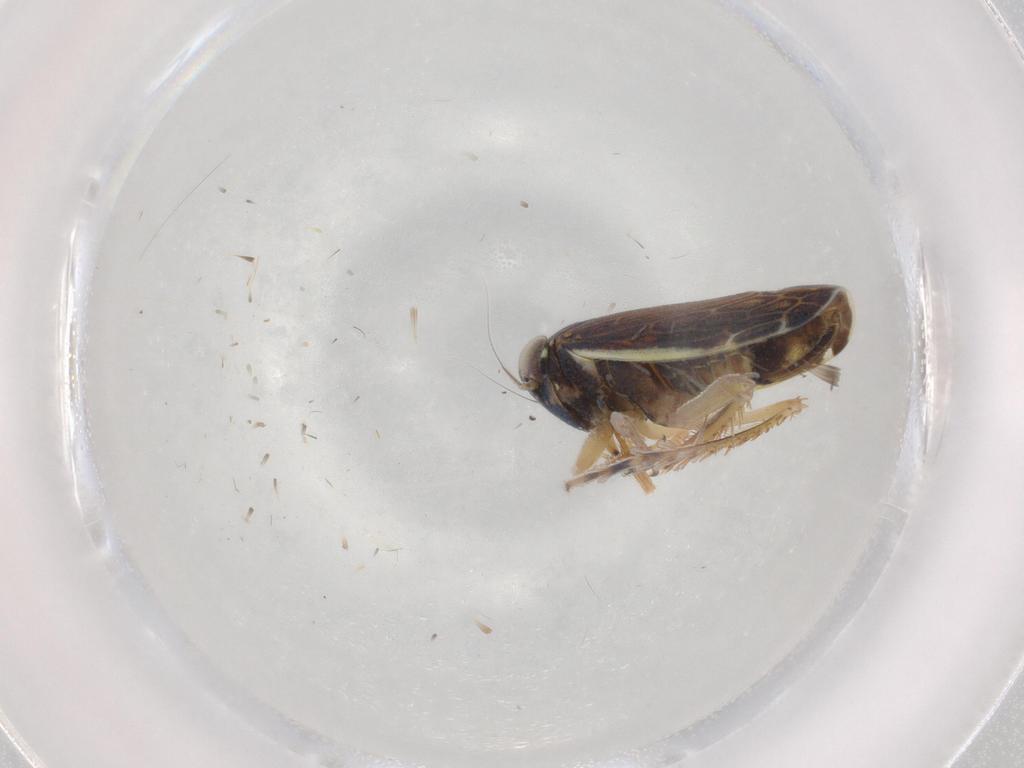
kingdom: Animalia
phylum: Arthropoda
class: Insecta
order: Hemiptera
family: Cicadellidae
